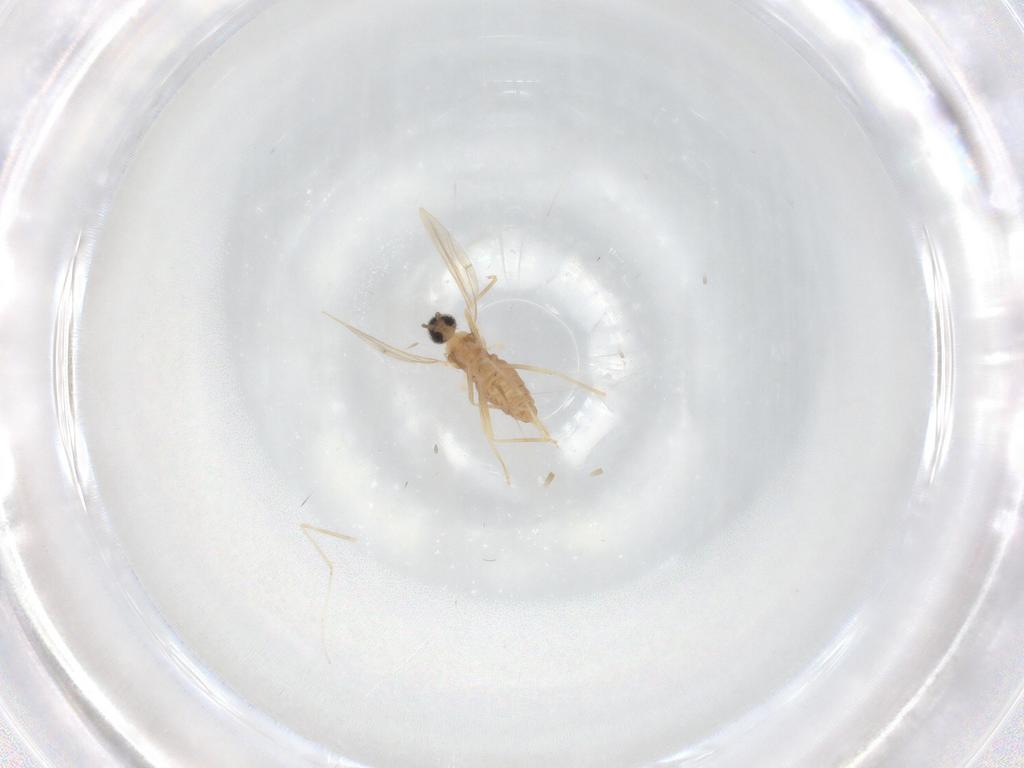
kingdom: Animalia
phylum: Arthropoda
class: Insecta
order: Diptera
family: Cecidomyiidae
